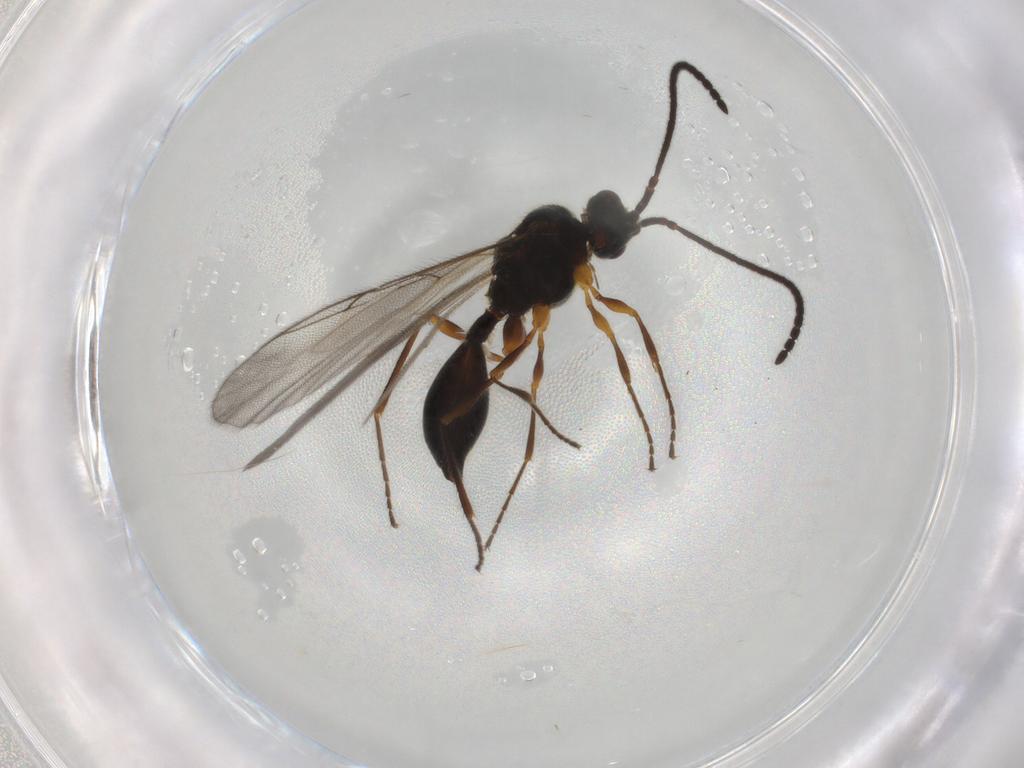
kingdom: Animalia
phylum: Arthropoda
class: Insecta
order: Hymenoptera
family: Diapriidae
